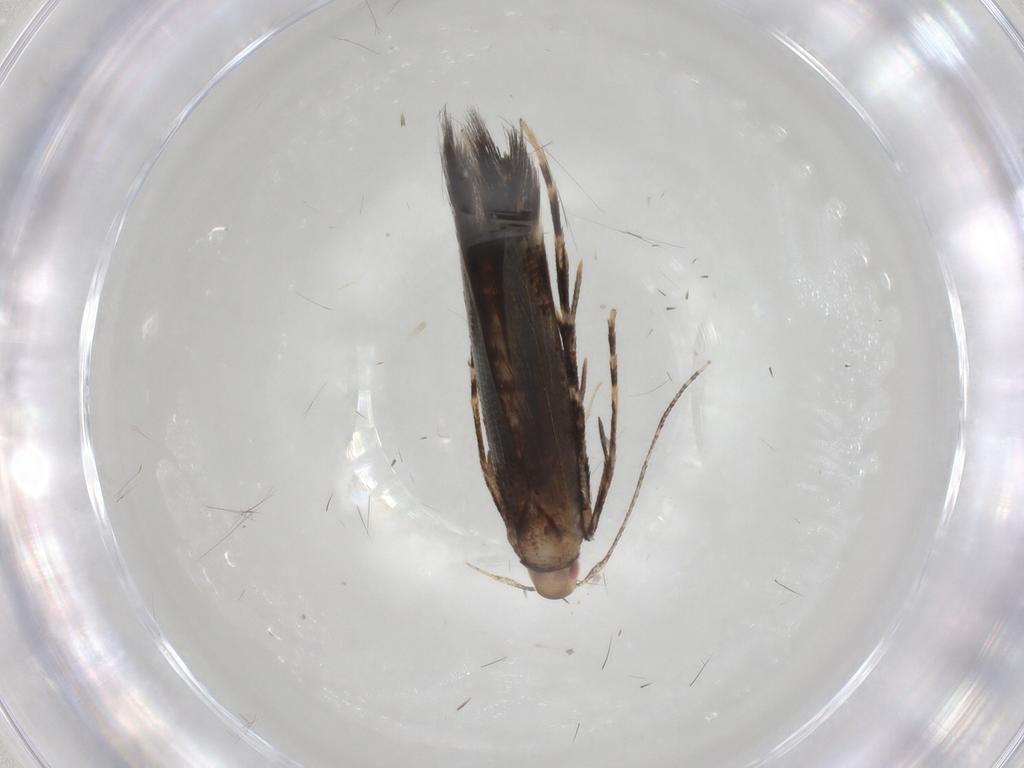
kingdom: Animalia
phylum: Arthropoda
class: Insecta
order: Lepidoptera
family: Cosmopterigidae
